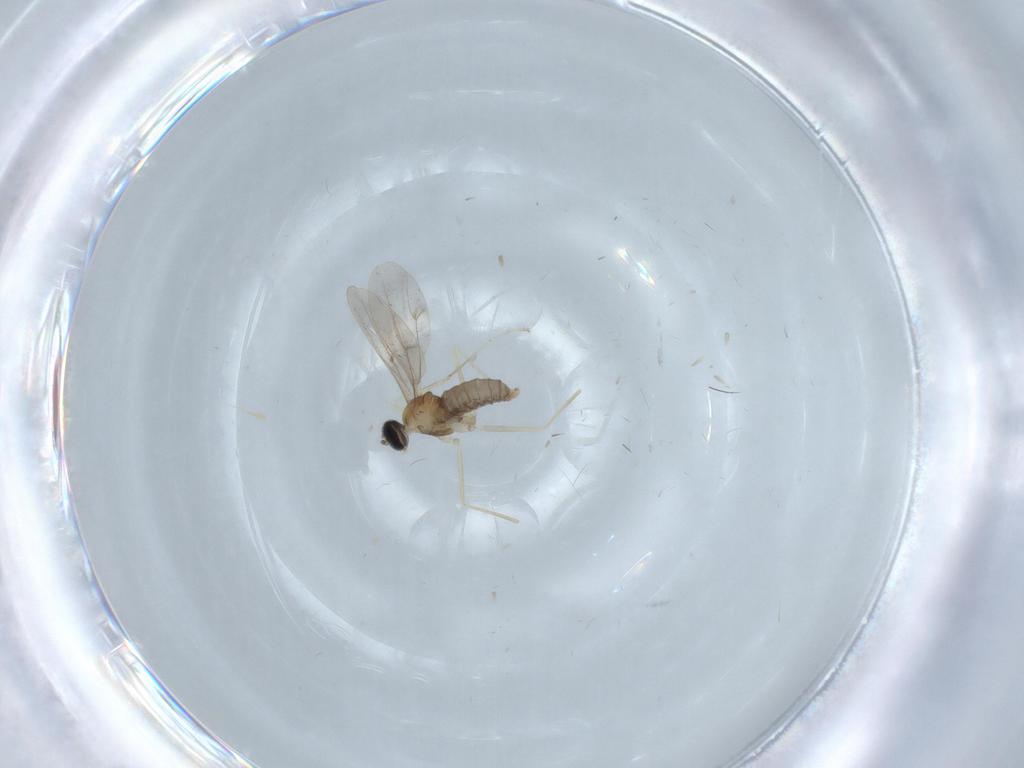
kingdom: Animalia
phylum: Arthropoda
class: Insecta
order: Diptera
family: Cecidomyiidae
